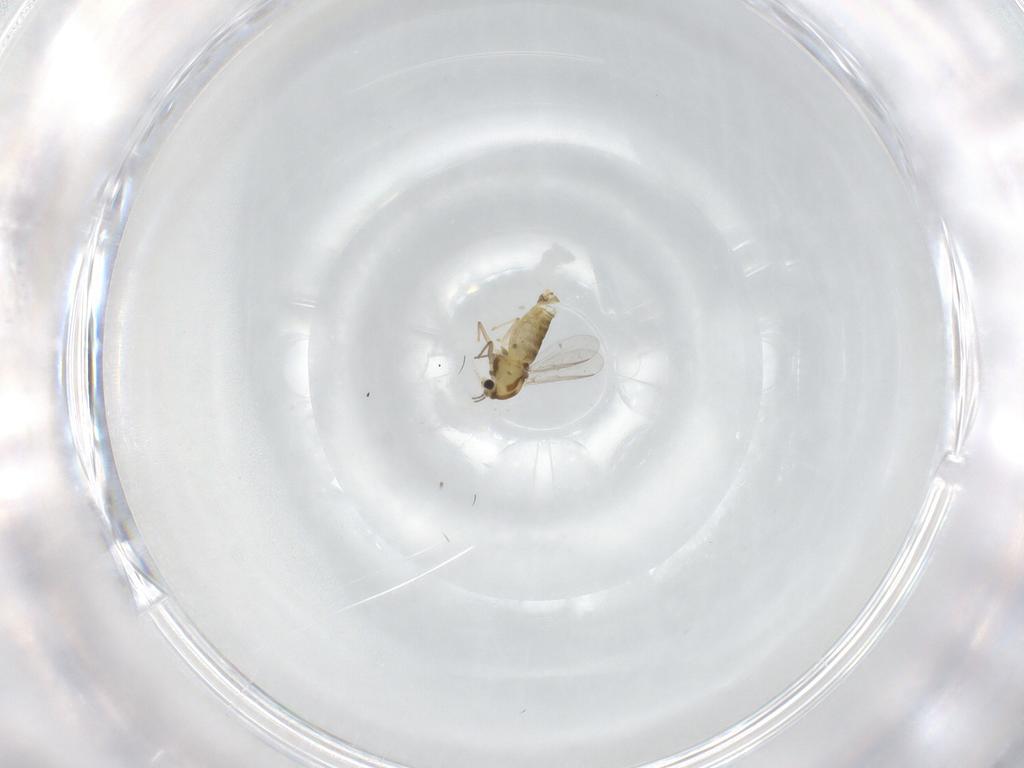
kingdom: Animalia
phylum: Arthropoda
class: Insecta
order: Diptera
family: Chironomidae
